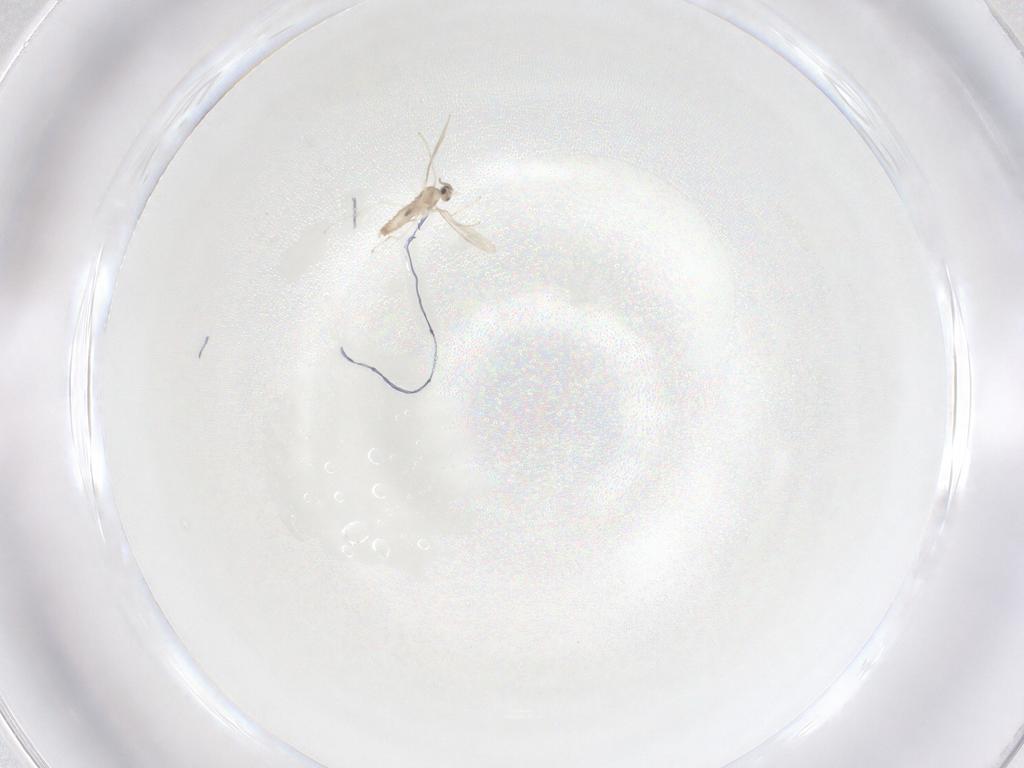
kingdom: Animalia
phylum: Arthropoda
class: Insecta
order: Diptera
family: Cecidomyiidae
